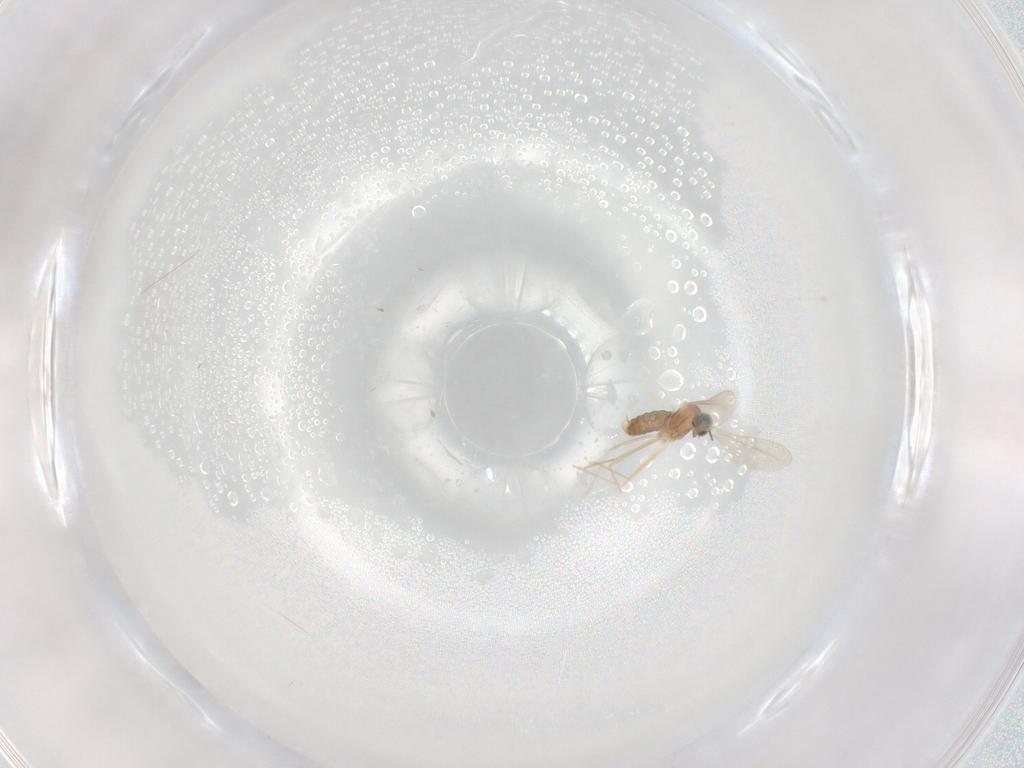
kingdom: Animalia
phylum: Arthropoda
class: Insecta
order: Diptera
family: Cecidomyiidae
